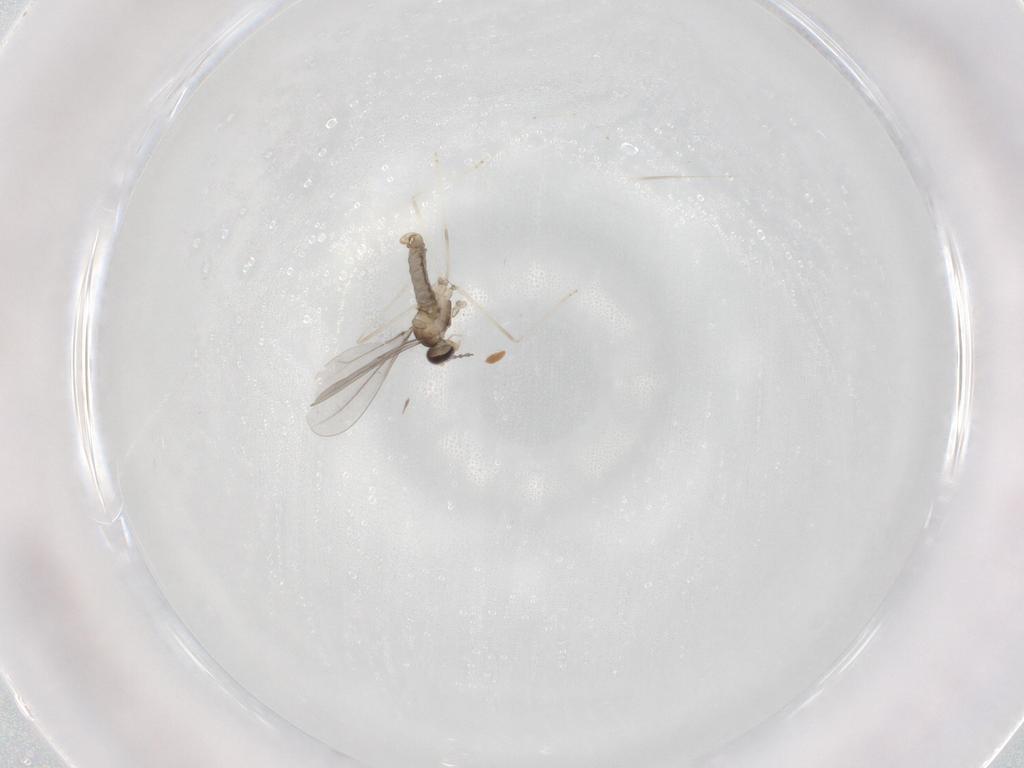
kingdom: Animalia
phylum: Arthropoda
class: Insecta
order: Diptera
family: Cecidomyiidae
